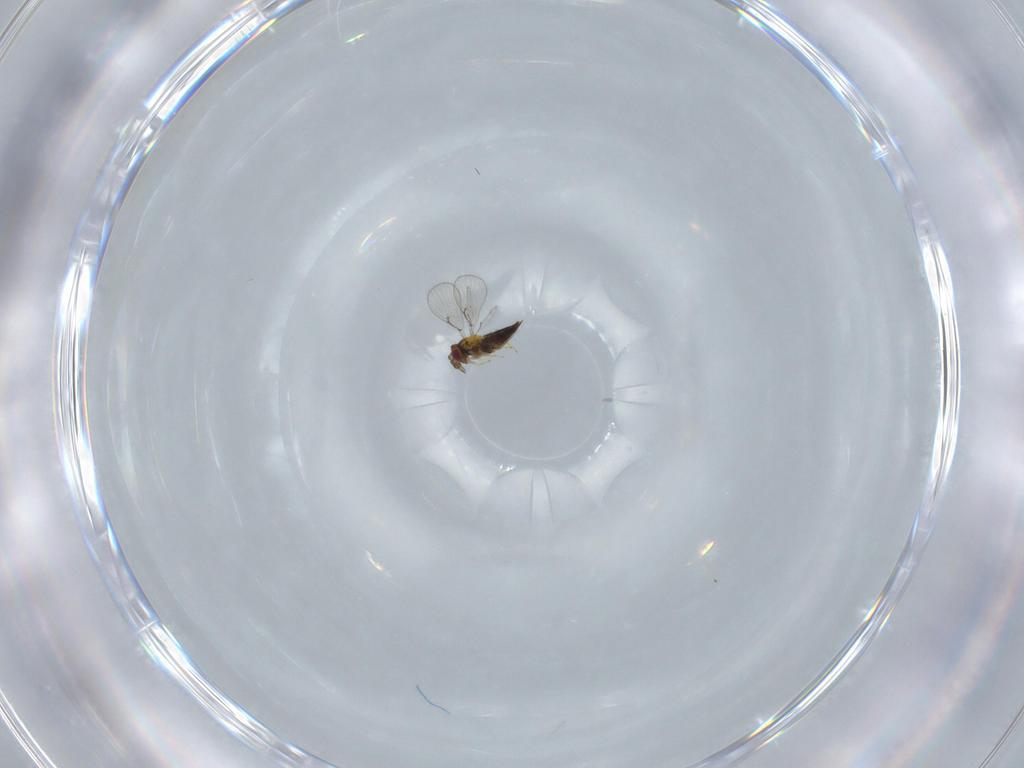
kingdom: Animalia
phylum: Arthropoda
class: Insecta
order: Hymenoptera
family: Trichogrammatidae
